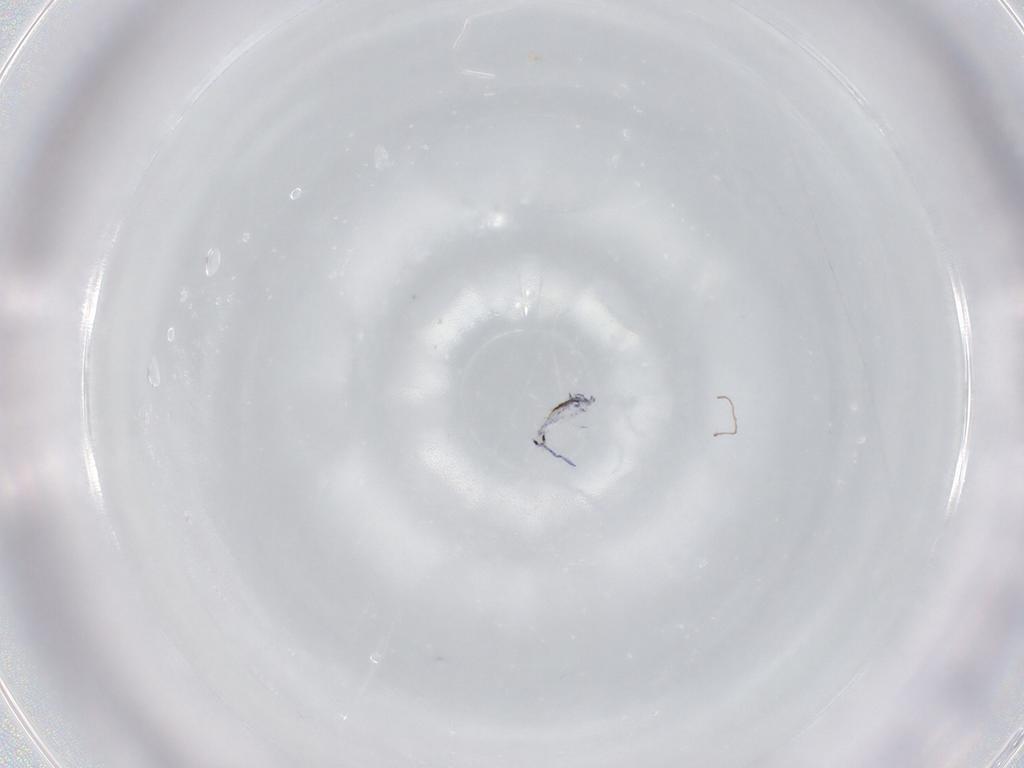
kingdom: Animalia
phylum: Arthropoda
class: Collembola
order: Entomobryomorpha
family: Entomobryidae
